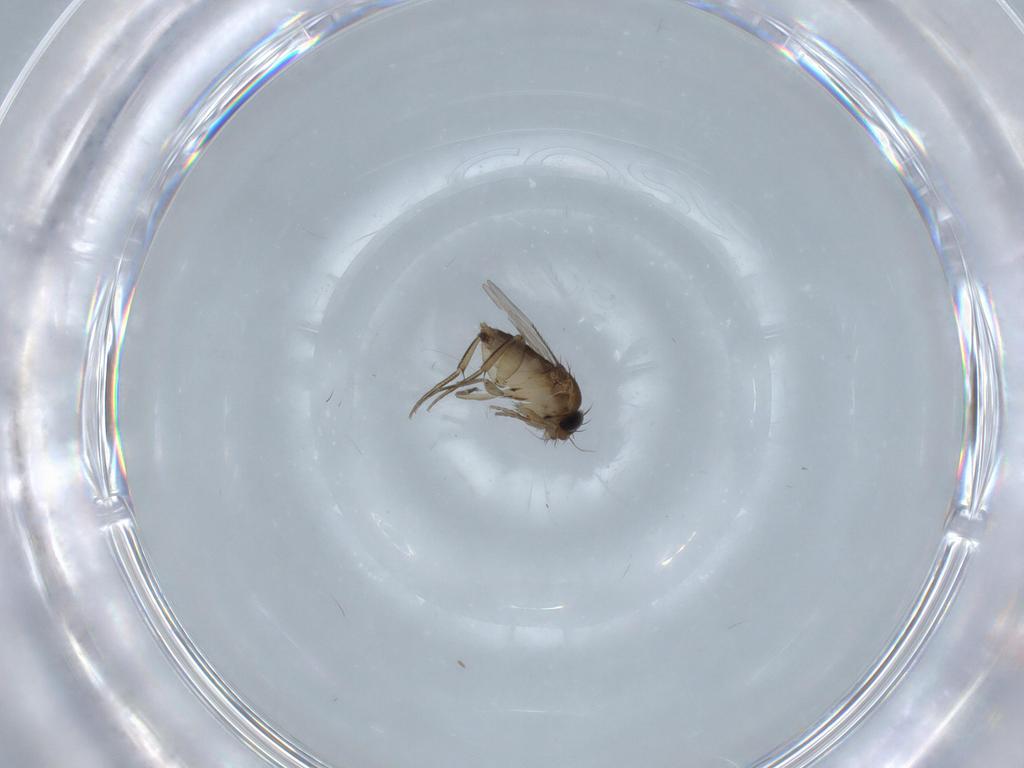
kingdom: Animalia
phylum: Arthropoda
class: Insecta
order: Diptera
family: Phoridae
